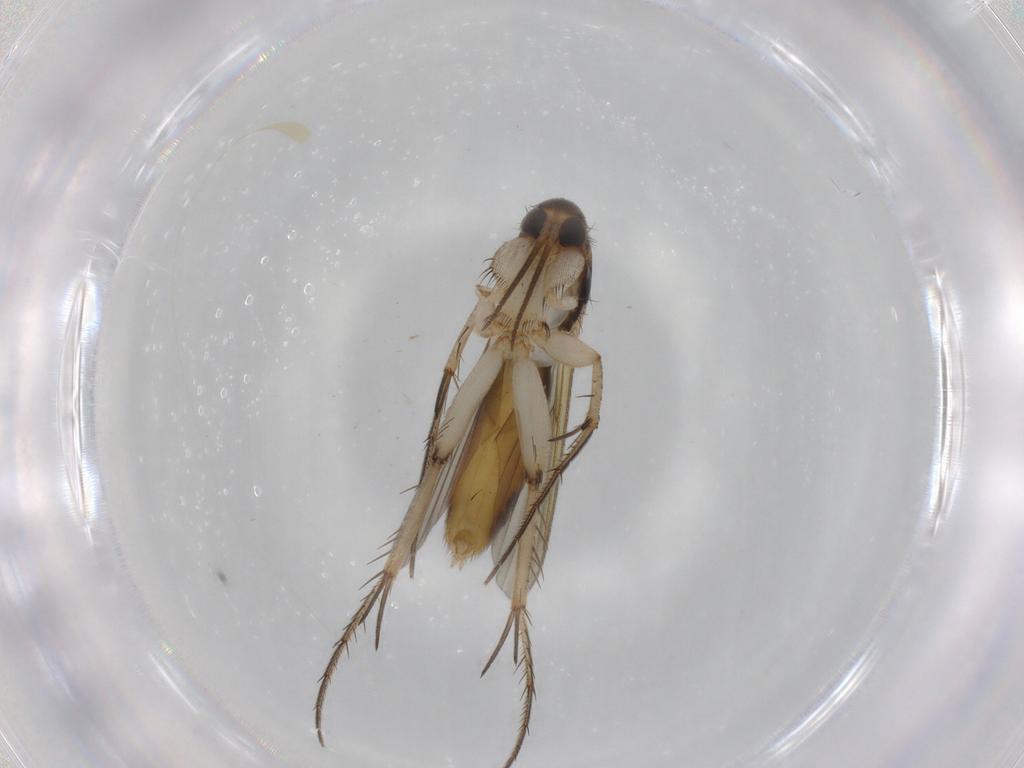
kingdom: Animalia
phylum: Arthropoda
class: Insecta
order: Diptera
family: Mycetophilidae
